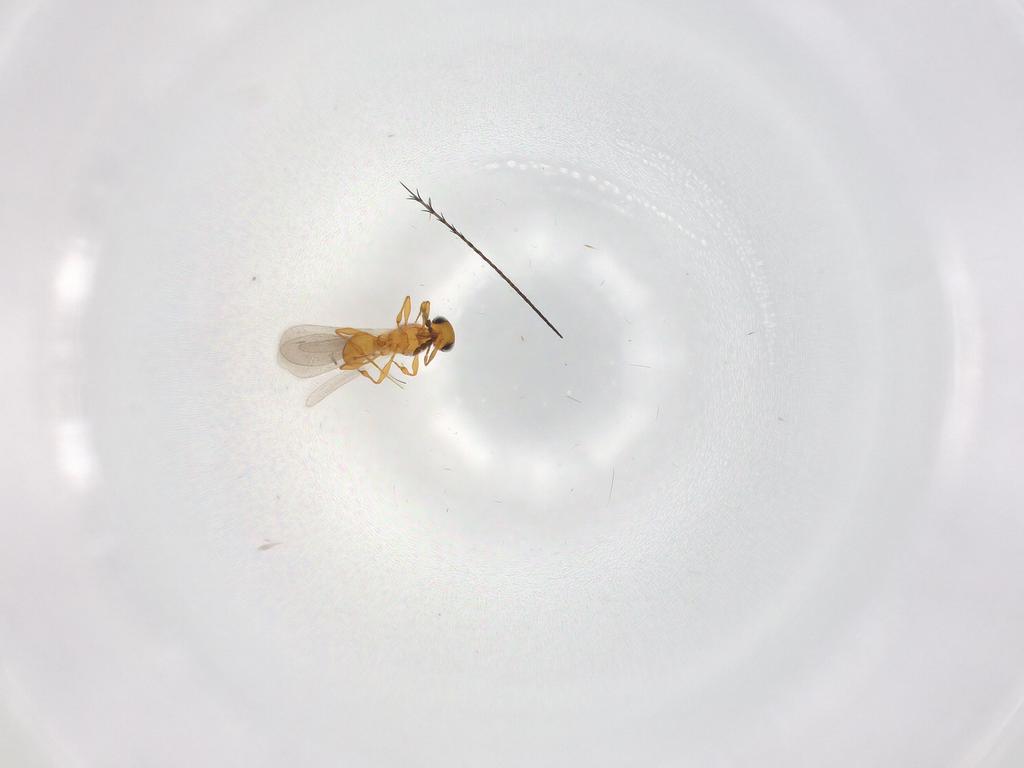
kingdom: Animalia
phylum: Arthropoda
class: Insecta
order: Hymenoptera
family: Platygastridae
